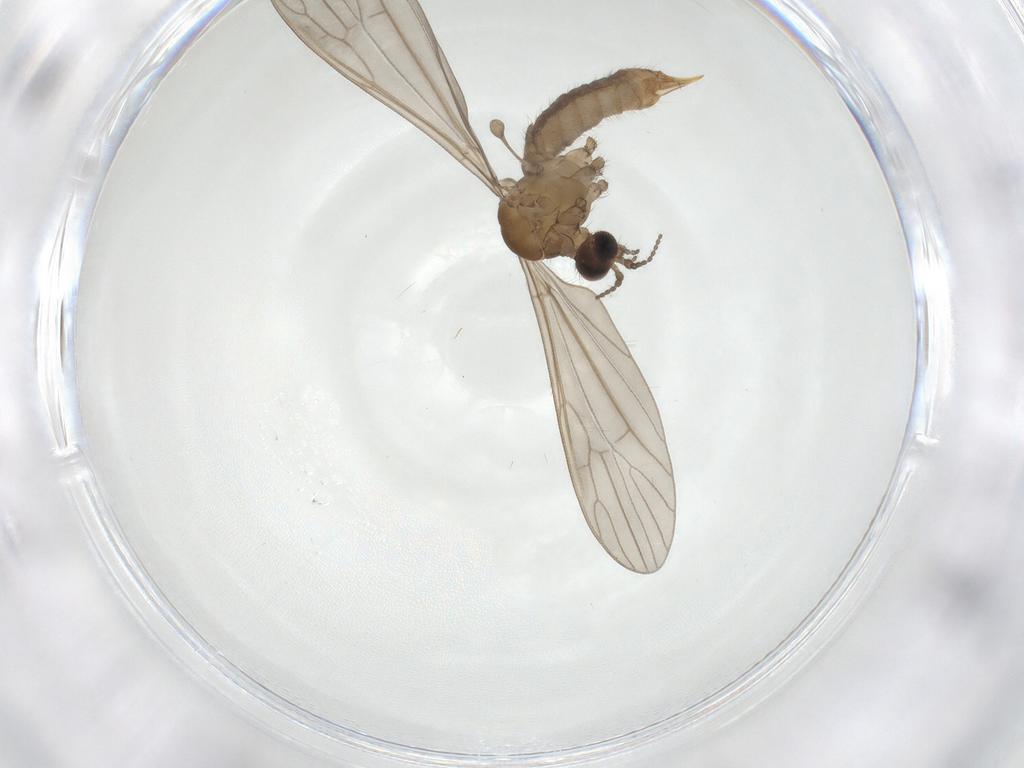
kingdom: Animalia
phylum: Arthropoda
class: Insecta
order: Diptera
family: Limoniidae
